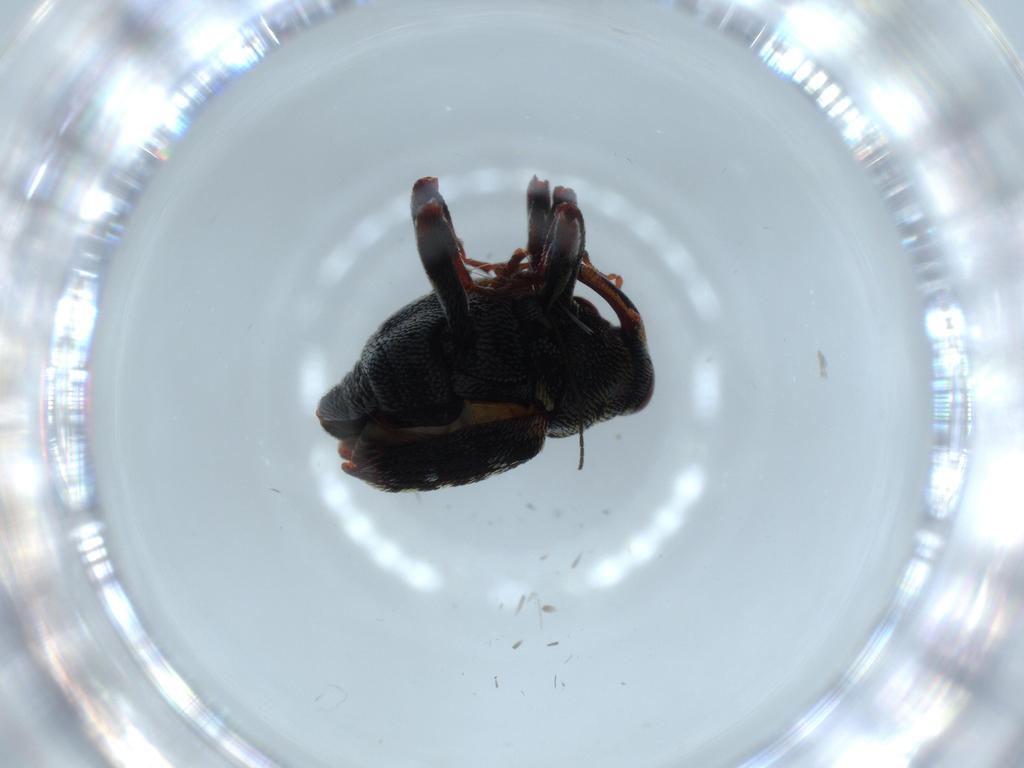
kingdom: Animalia
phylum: Arthropoda
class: Insecta
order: Coleoptera
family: Curculionidae
